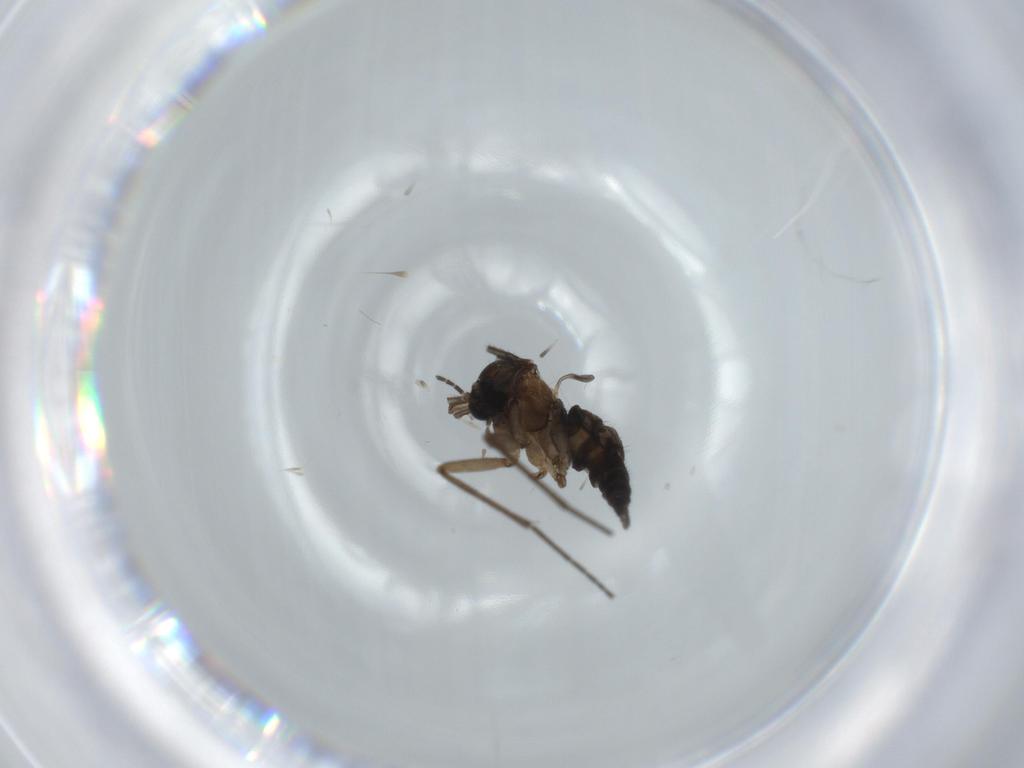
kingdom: Animalia
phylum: Arthropoda
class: Insecta
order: Diptera
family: Sciaridae
